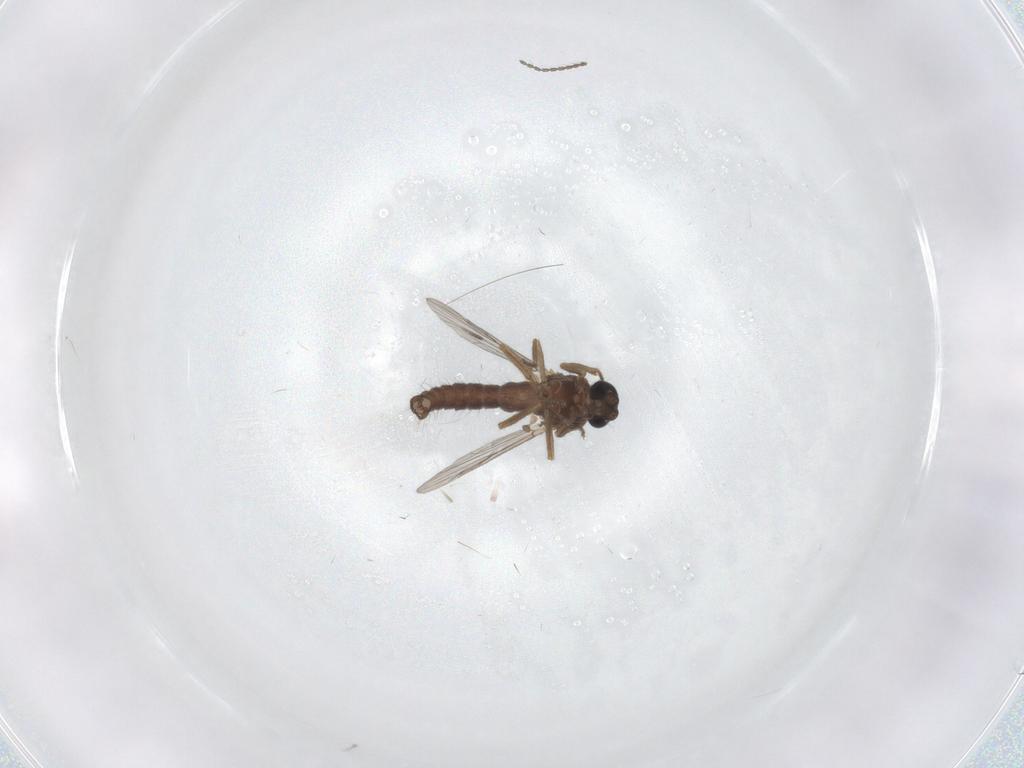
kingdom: Animalia
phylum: Arthropoda
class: Insecta
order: Diptera
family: Ceratopogonidae
